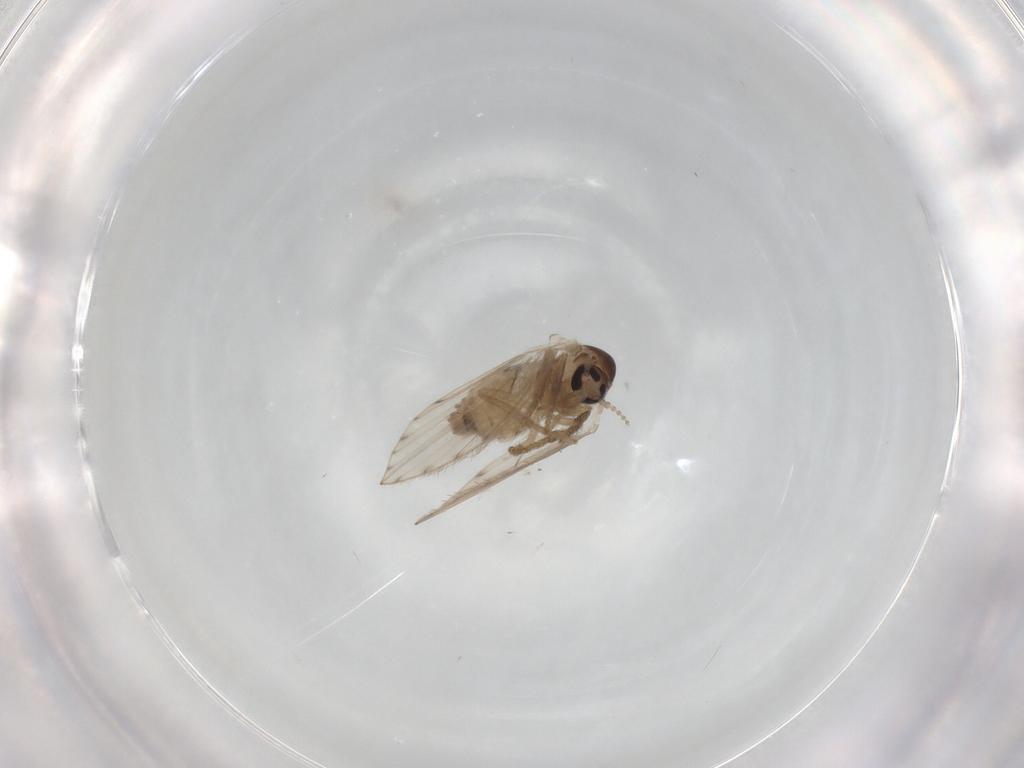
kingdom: Animalia
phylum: Arthropoda
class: Insecta
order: Diptera
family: Psychodidae
